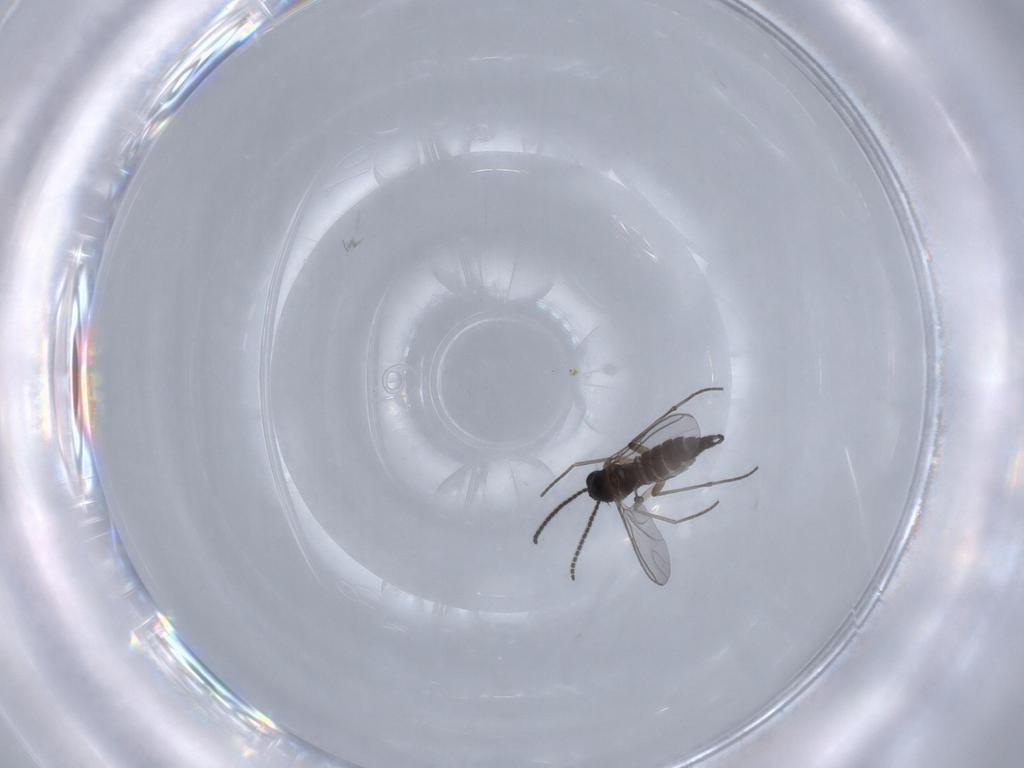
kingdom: Animalia
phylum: Arthropoda
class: Insecta
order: Diptera
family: Sciaridae
